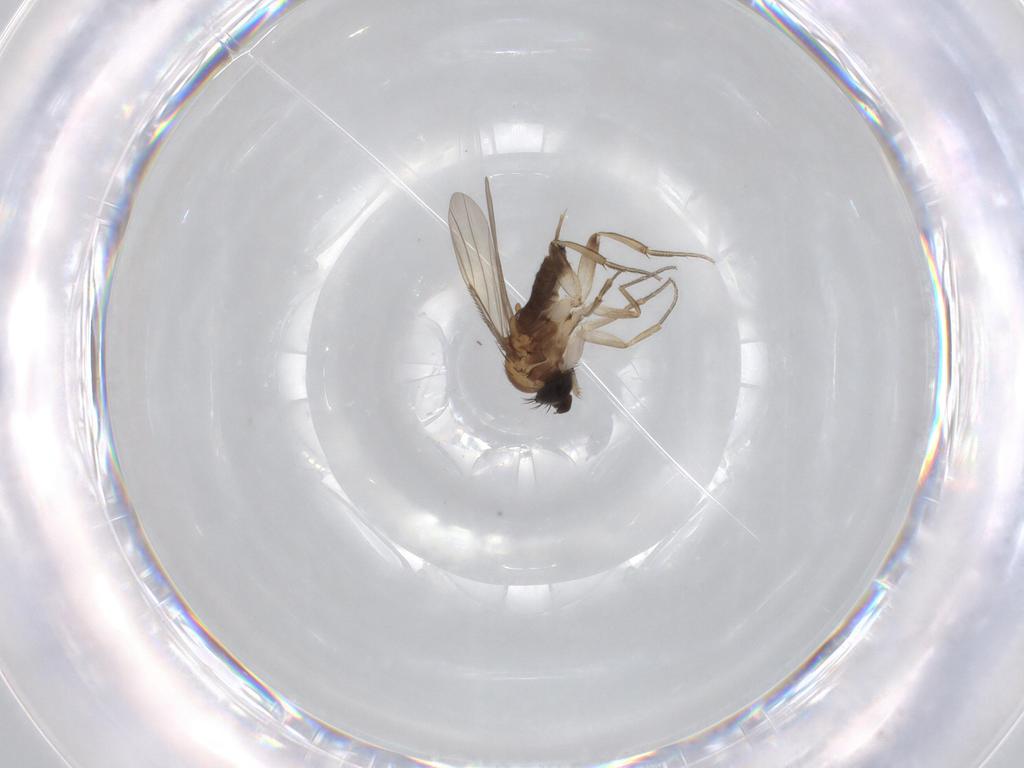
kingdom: Animalia
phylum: Arthropoda
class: Insecta
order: Diptera
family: Phoridae
